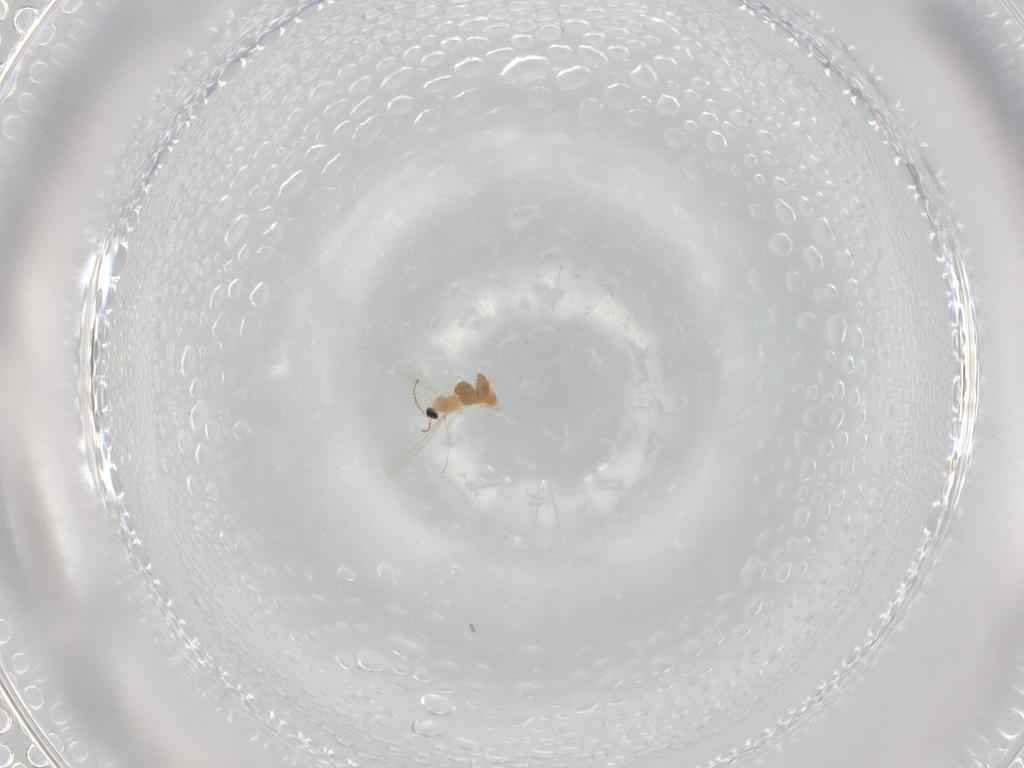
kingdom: Animalia
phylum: Arthropoda
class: Insecta
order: Diptera
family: Cecidomyiidae
